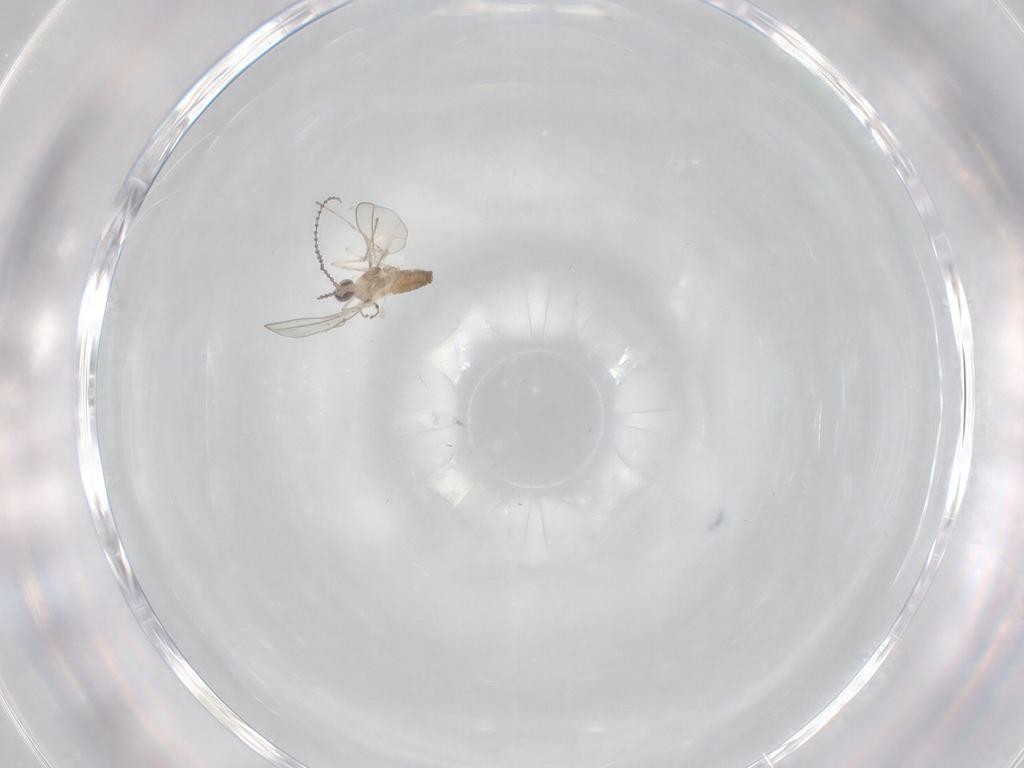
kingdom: Animalia
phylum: Arthropoda
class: Insecta
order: Diptera
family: Cecidomyiidae
